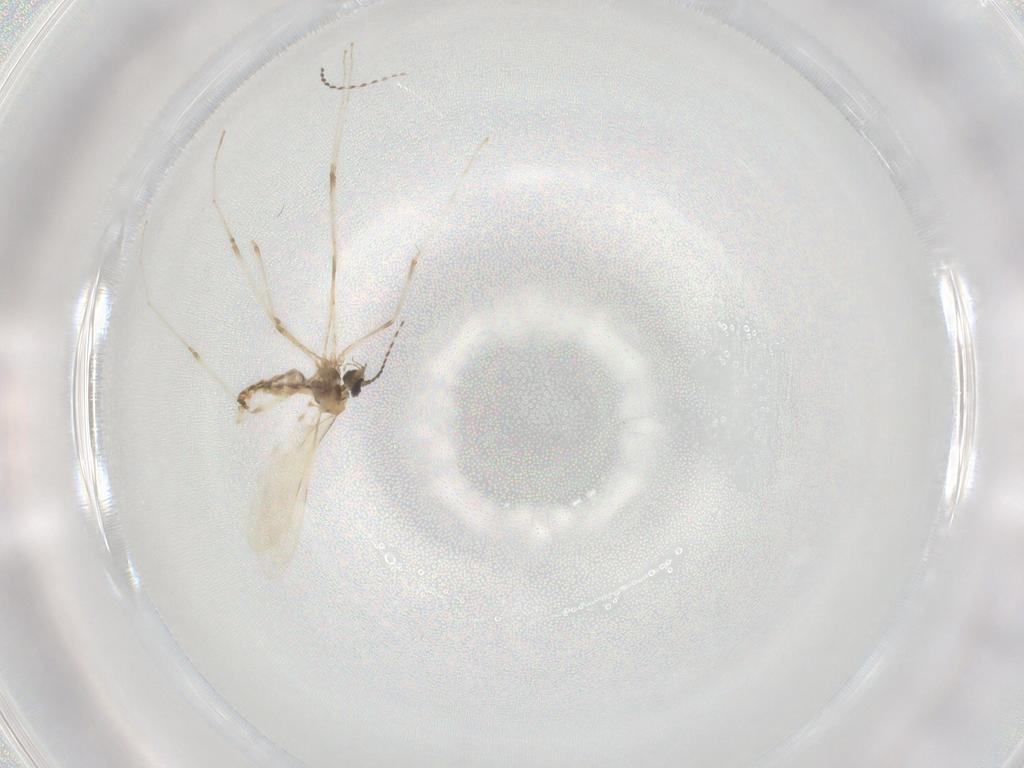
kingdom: Animalia
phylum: Arthropoda
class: Insecta
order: Diptera
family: Cecidomyiidae
